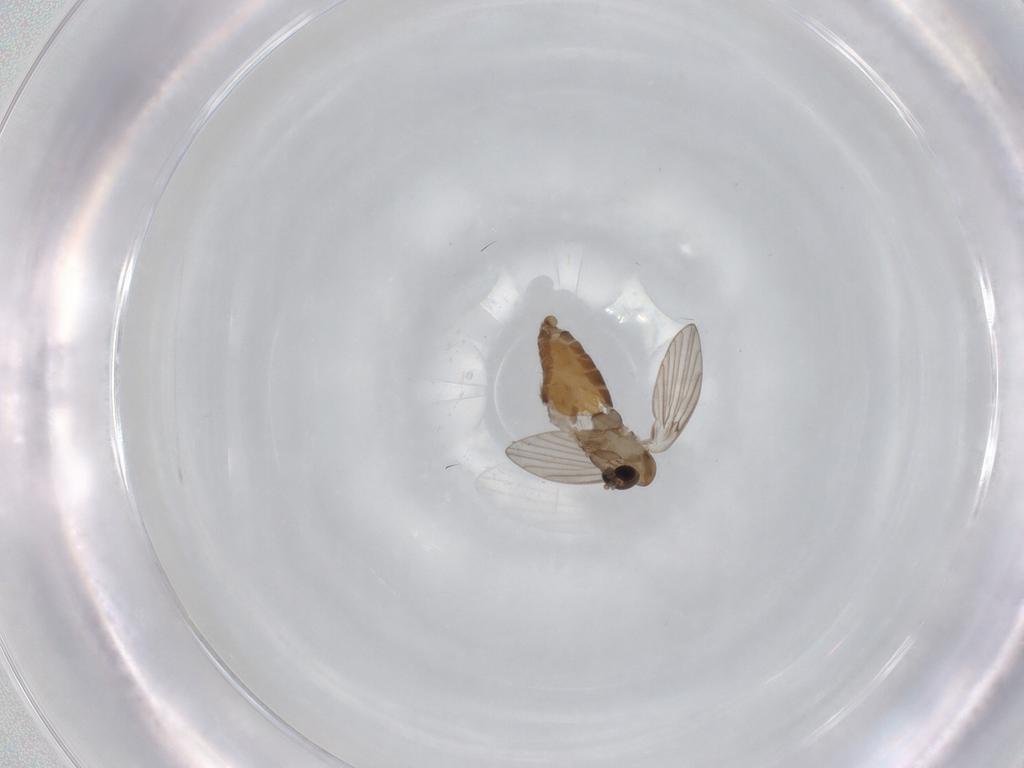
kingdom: Animalia
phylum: Arthropoda
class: Insecta
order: Diptera
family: Psychodidae
